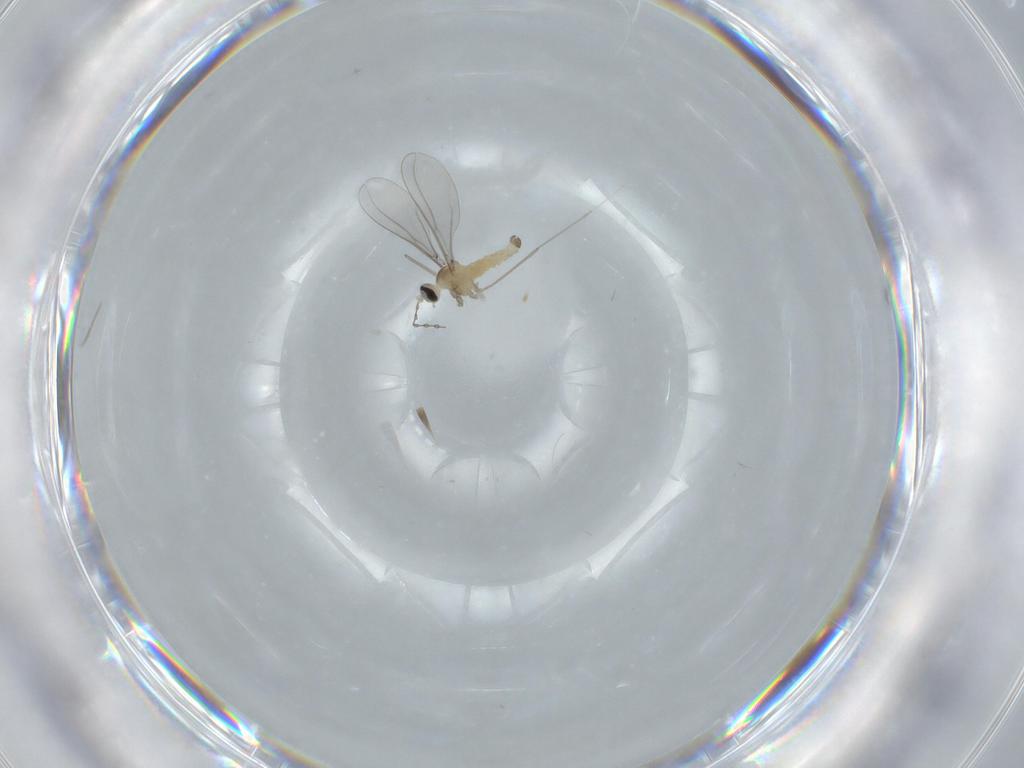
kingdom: Animalia
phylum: Arthropoda
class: Insecta
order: Diptera
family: Cecidomyiidae
